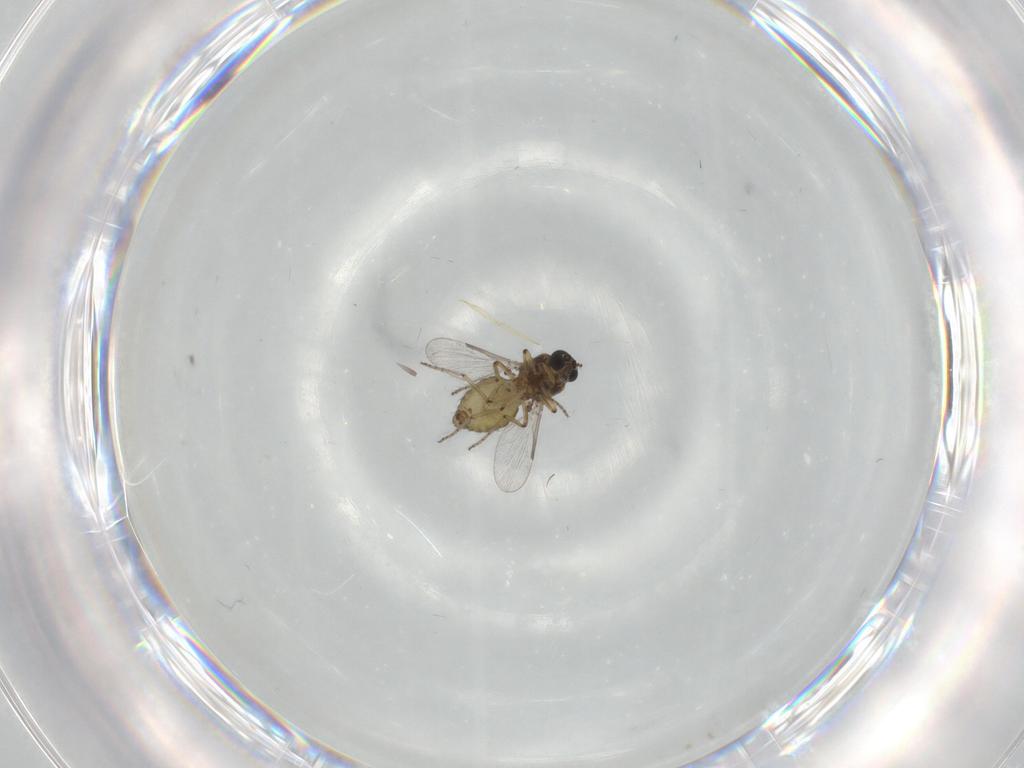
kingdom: Animalia
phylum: Arthropoda
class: Insecta
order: Diptera
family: Ceratopogonidae
